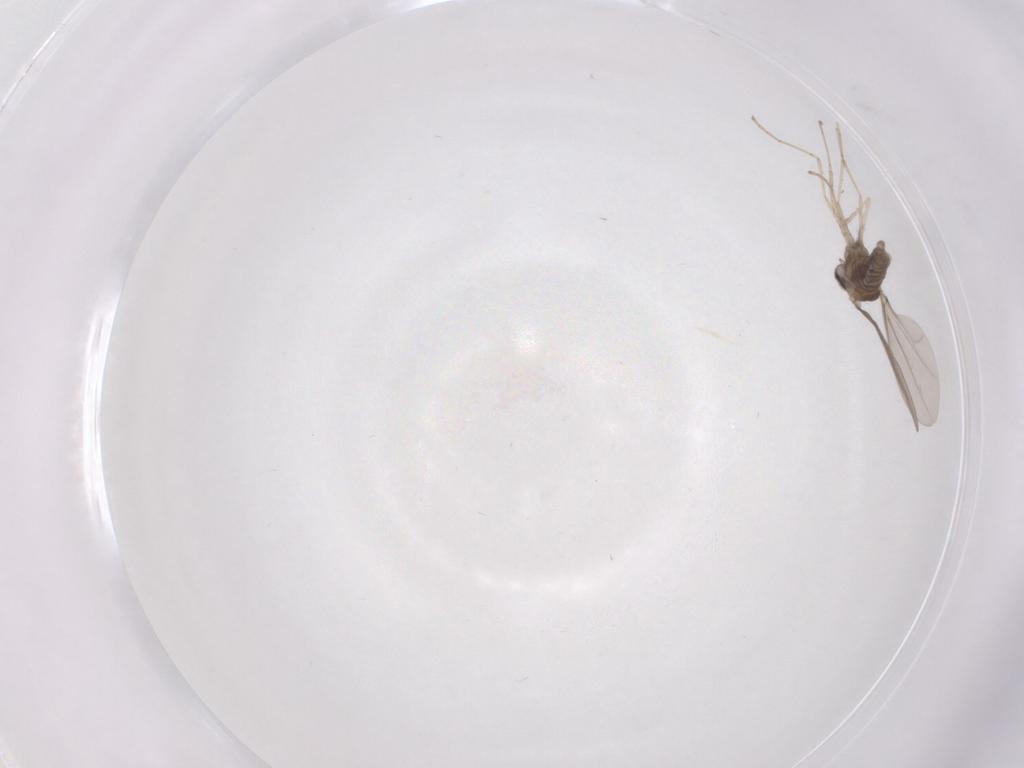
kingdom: Animalia
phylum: Arthropoda
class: Insecta
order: Diptera
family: Cecidomyiidae
